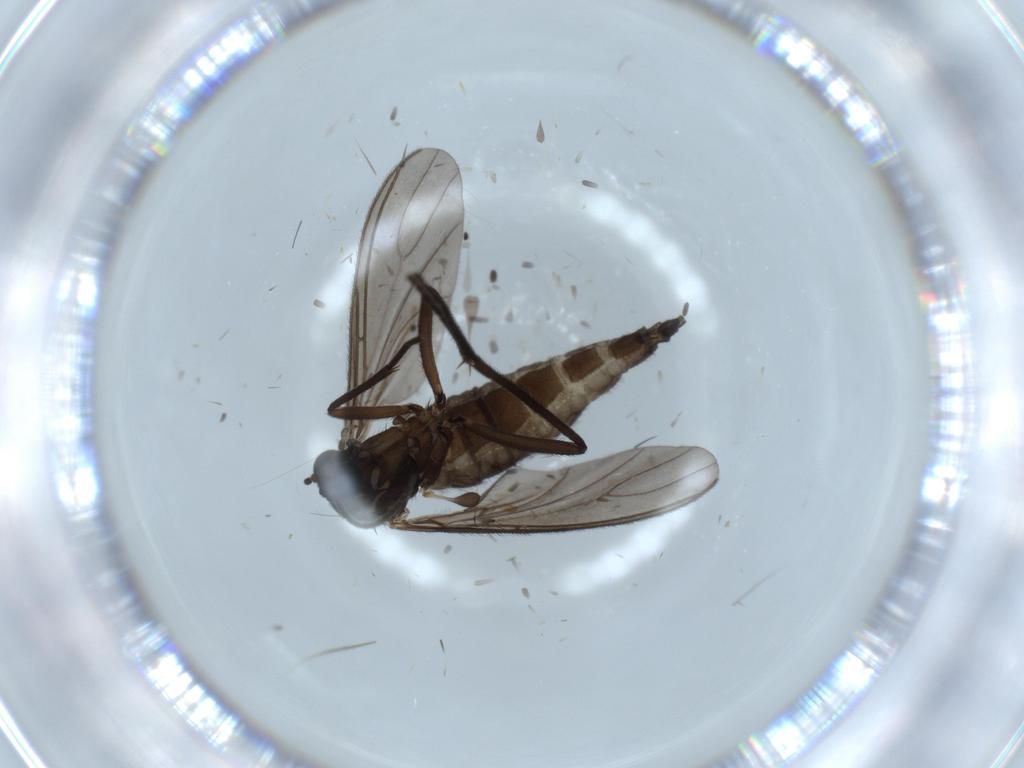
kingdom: Animalia
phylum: Arthropoda
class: Insecta
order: Diptera
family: Sciaridae
